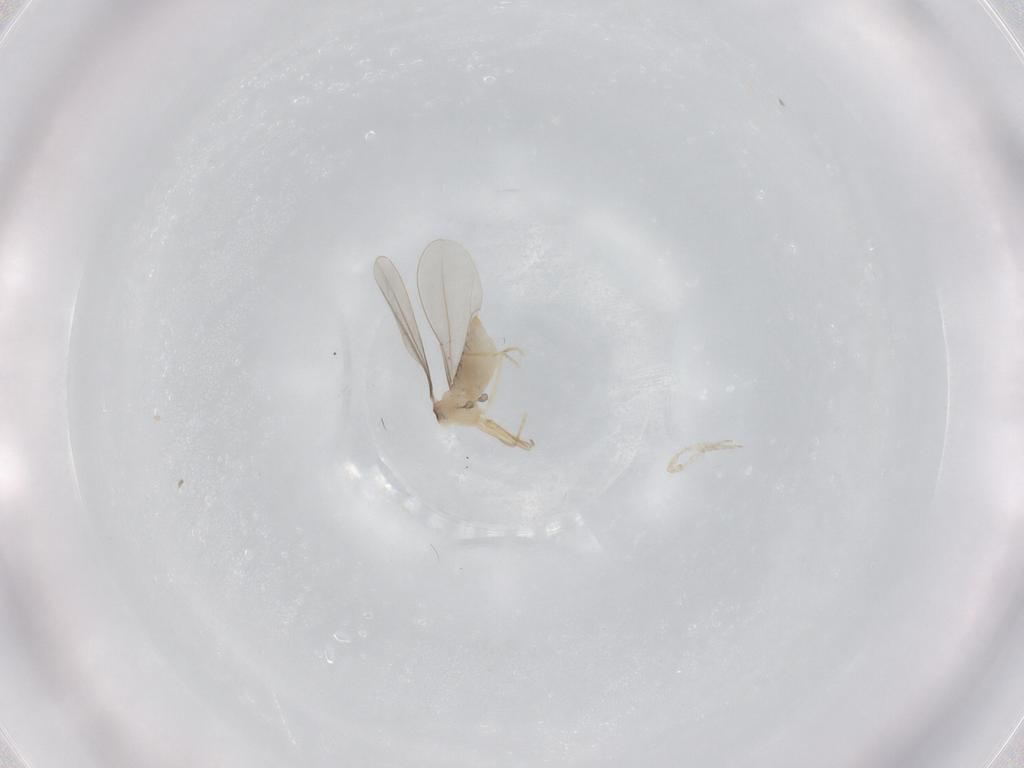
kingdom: Animalia
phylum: Arthropoda
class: Insecta
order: Diptera
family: Cecidomyiidae
